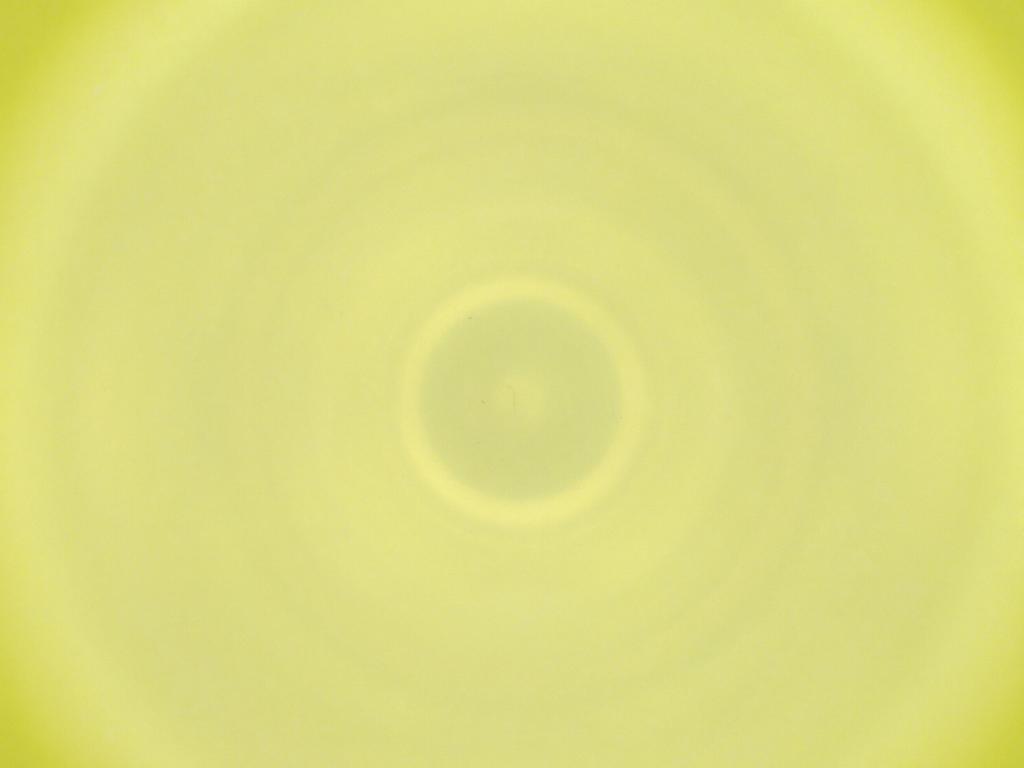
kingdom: Animalia
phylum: Arthropoda
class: Insecta
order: Diptera
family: Cecidomyiidae
